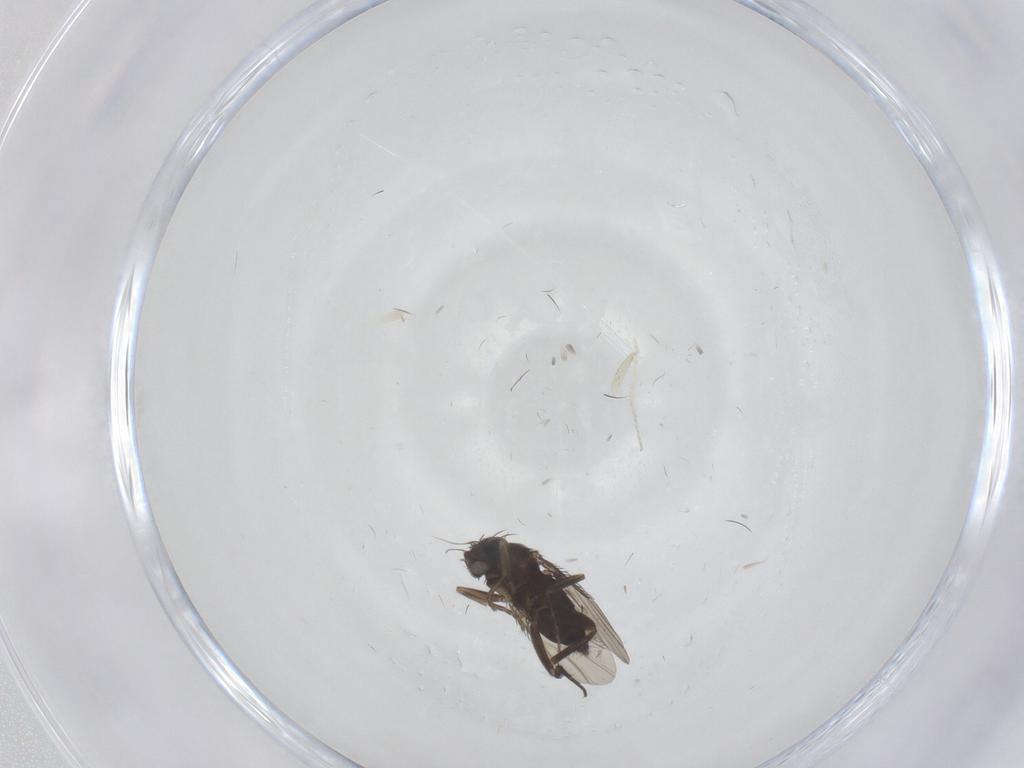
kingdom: Animalia
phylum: Arthropoda
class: Insecta
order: Diptera
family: Phoridae
